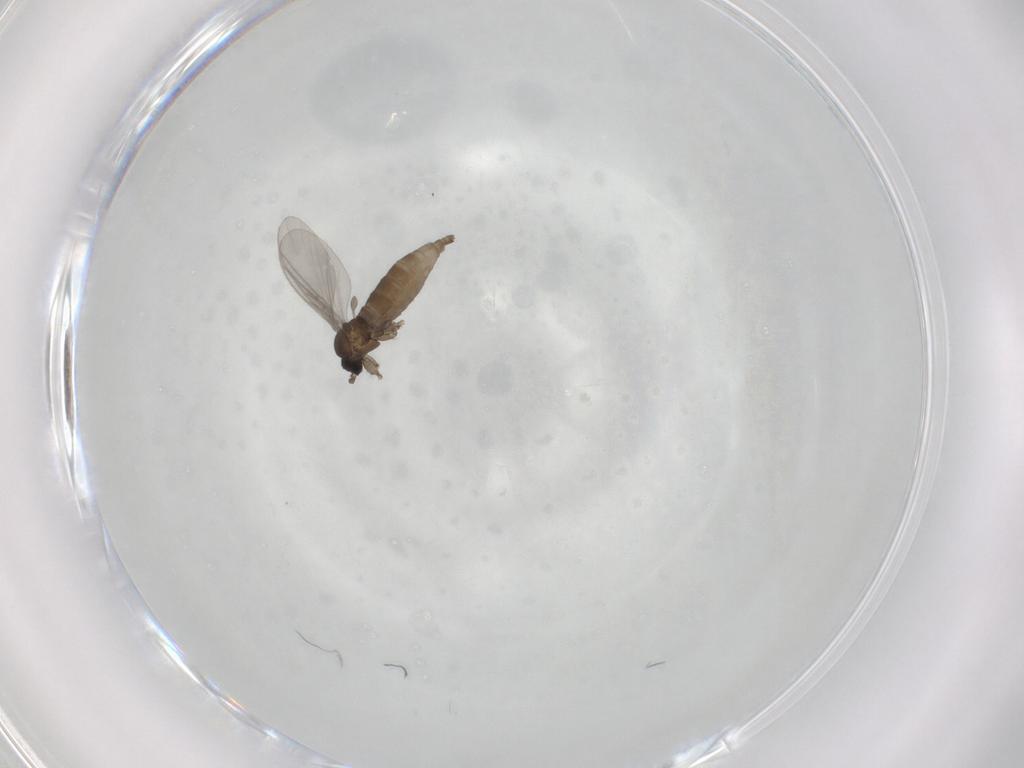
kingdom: Animalia
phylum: Arthropoda
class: Insecta
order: Diptera
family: Sciaridae
